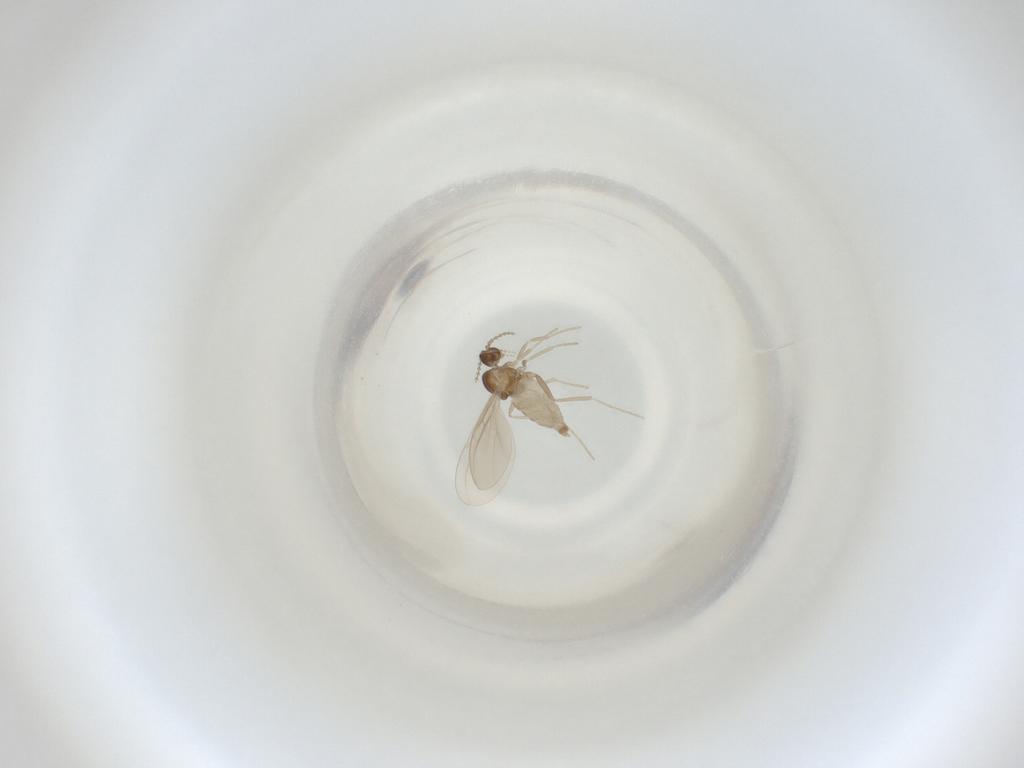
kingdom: Animalia
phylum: Arthropoda
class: Insecta
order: Diptera
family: Cecidomyiidae
